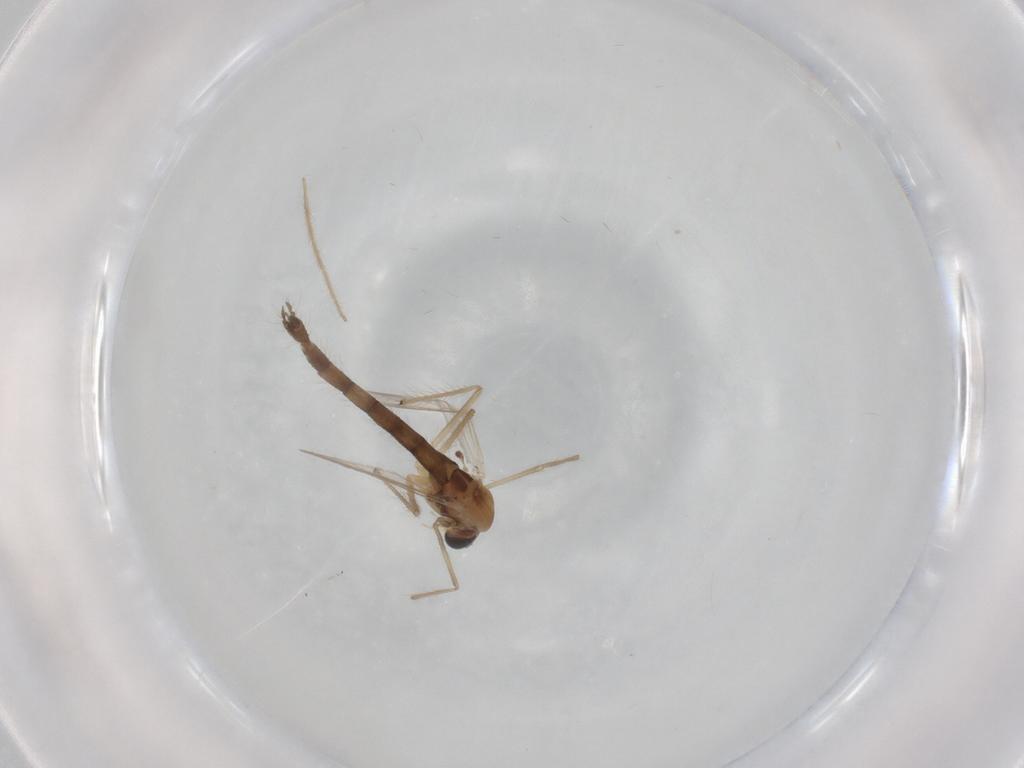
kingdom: Animalia
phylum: Arthropoda
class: Insecta
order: Diptera
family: Chironomidae
